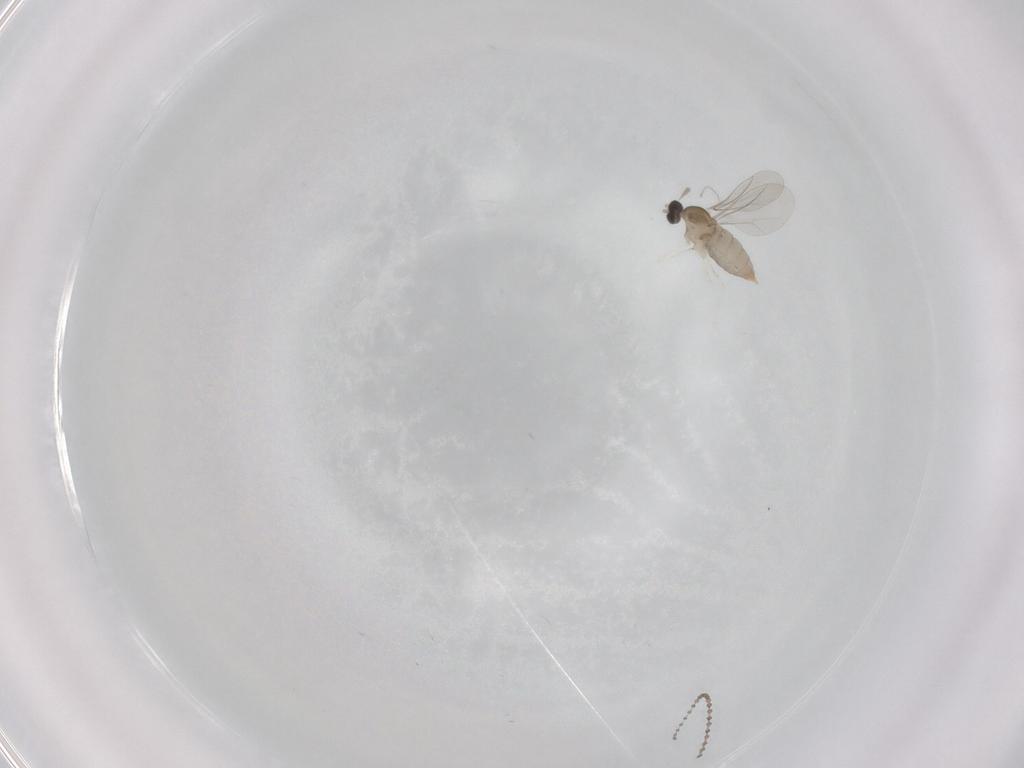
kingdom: Animalia
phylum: Arthropoda
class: Insecta
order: Diptera
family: Cecidomyiidae
